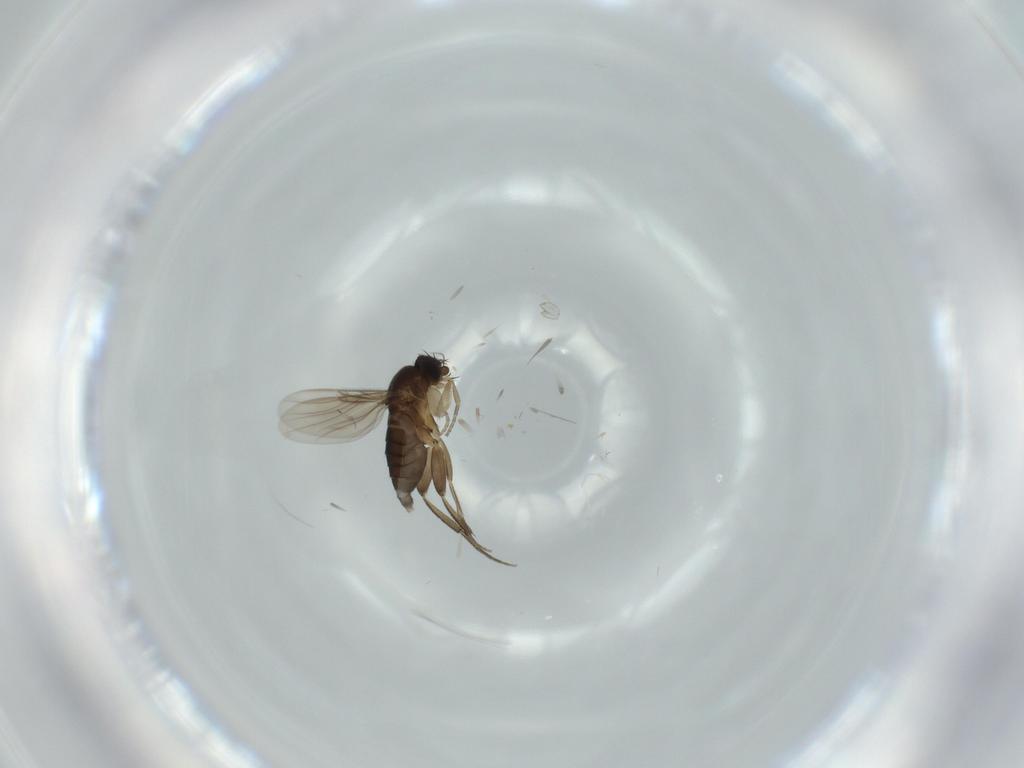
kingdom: Animalia
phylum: Arthropoda
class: Insecta
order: Diptera
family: Phoridae
